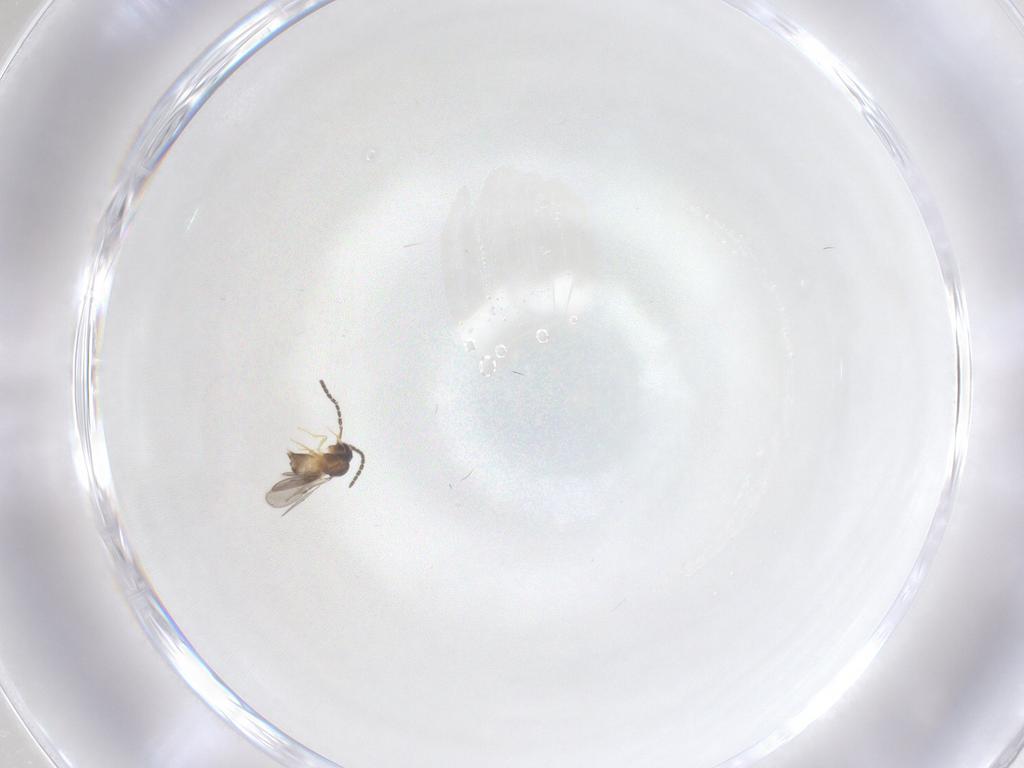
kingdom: Animalia
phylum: Arthropoda
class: Insecta
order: Diptera
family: Chironomidae
